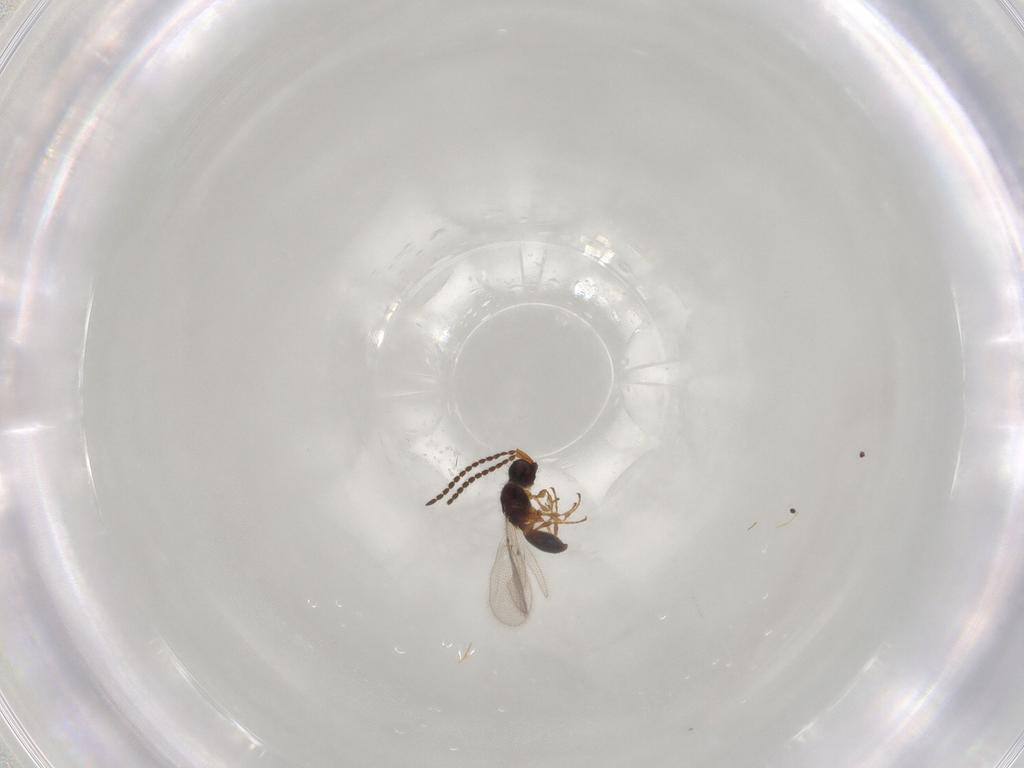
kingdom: Animalia
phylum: Arthropoda
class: Insecta
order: Hymenoptera
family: Diapriidae
